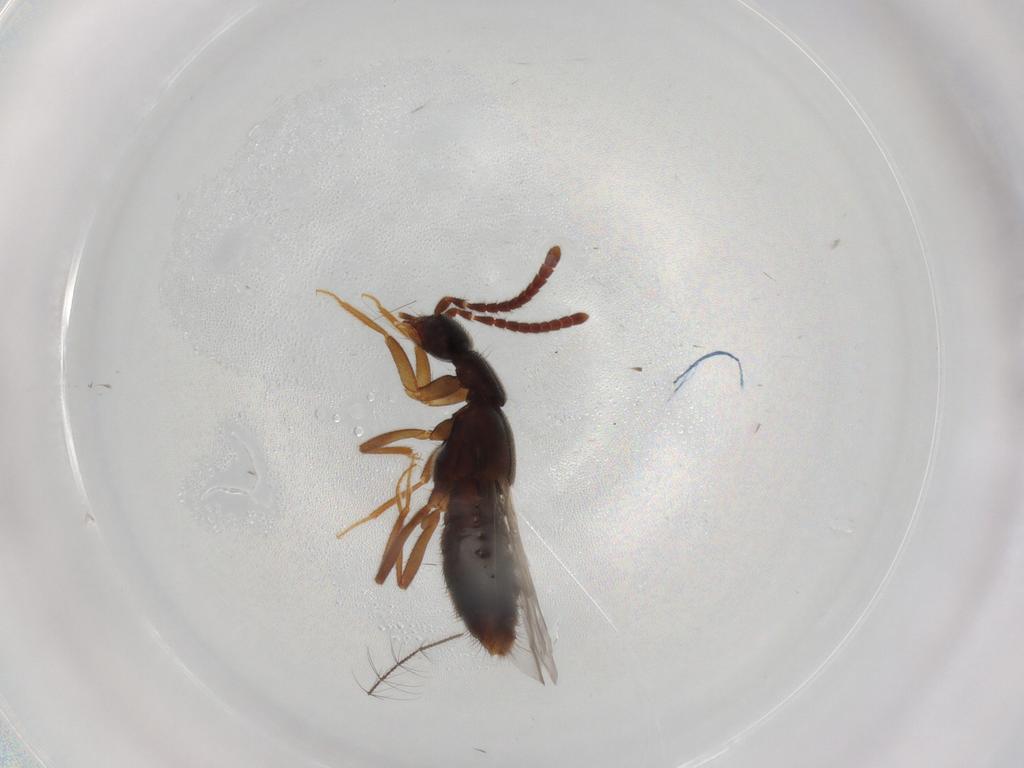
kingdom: Animalia
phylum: Arthropoda
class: Insecta
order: Coleoptera
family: Staphylinidae
